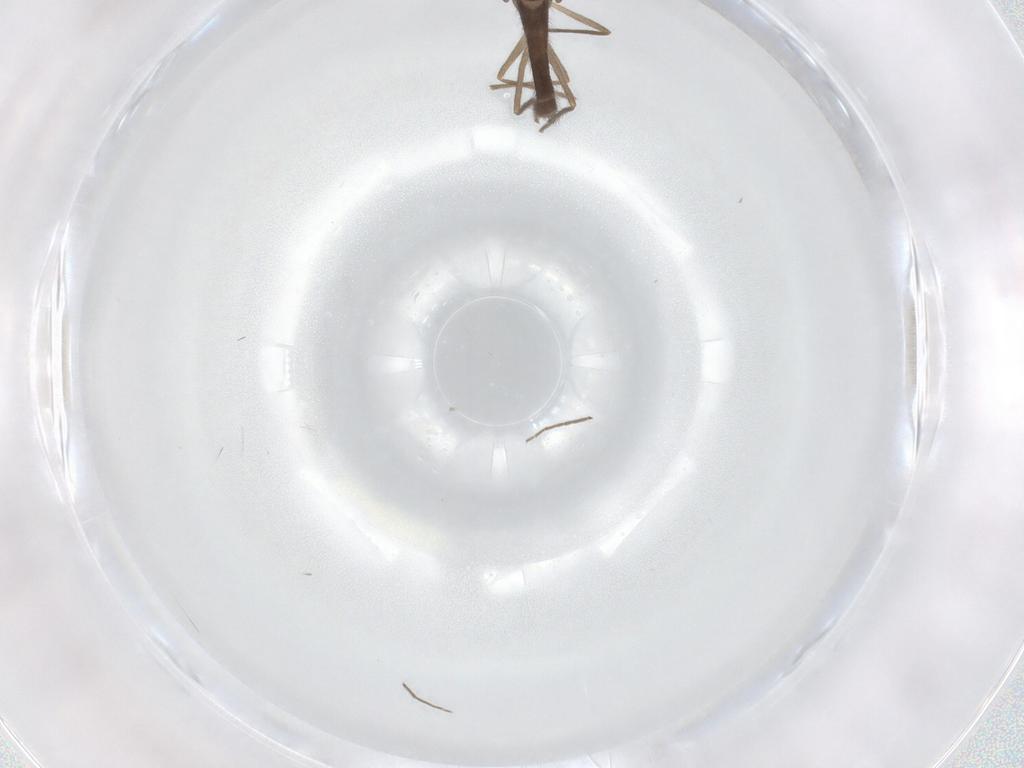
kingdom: Animalia
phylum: Arthropoda
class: Insecta
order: Diptera
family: Chironomidae
